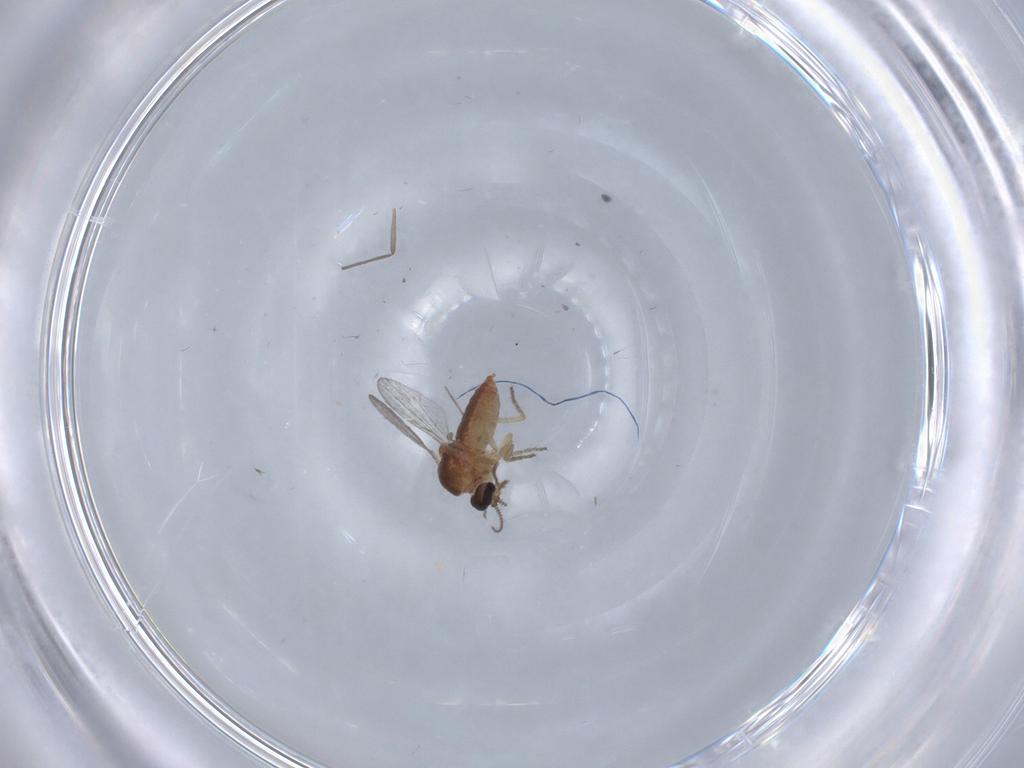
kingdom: Animalia
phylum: Arthropoda
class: Insecta
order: Diptera
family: Ceratopogonidae
